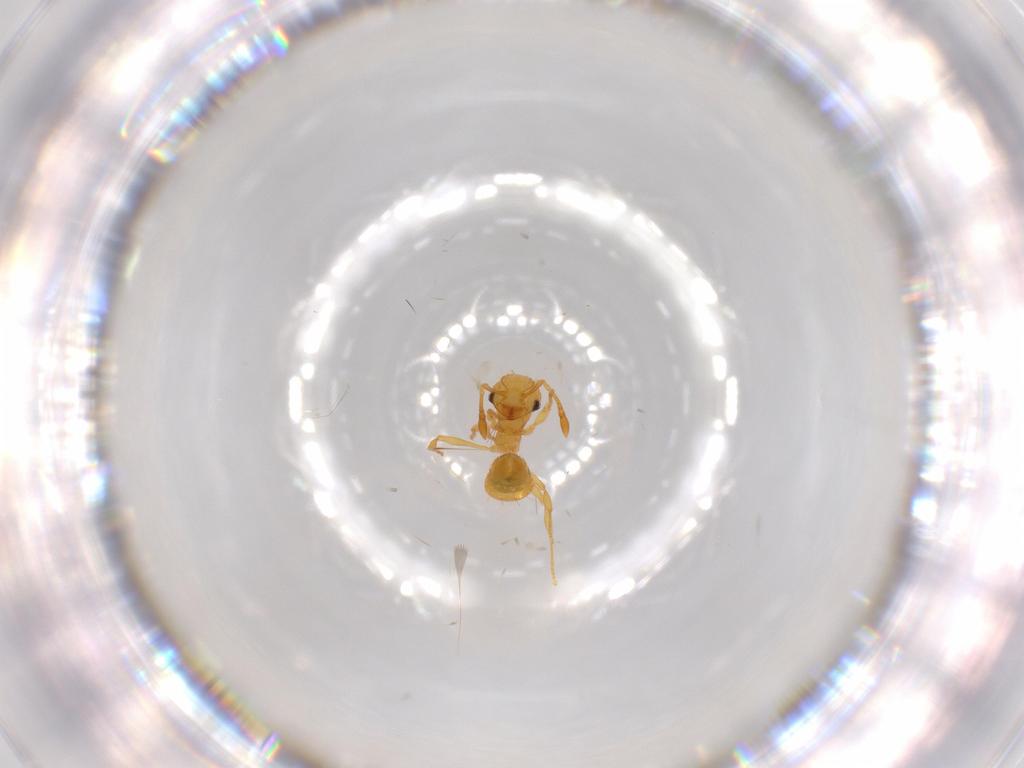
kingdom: Animalia
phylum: Arthropoda
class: Insecta
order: Hymenoptera
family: Formicidae
